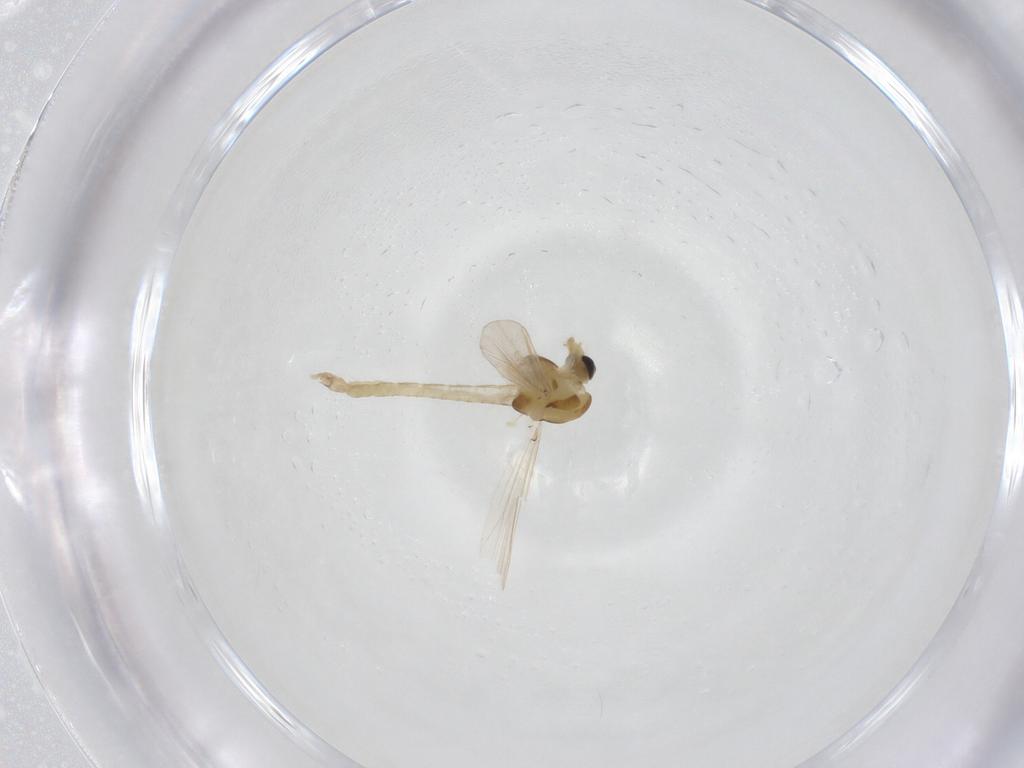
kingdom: Animalia
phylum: Arthropoda
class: Insecta
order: Diptera
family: Chironomidae
